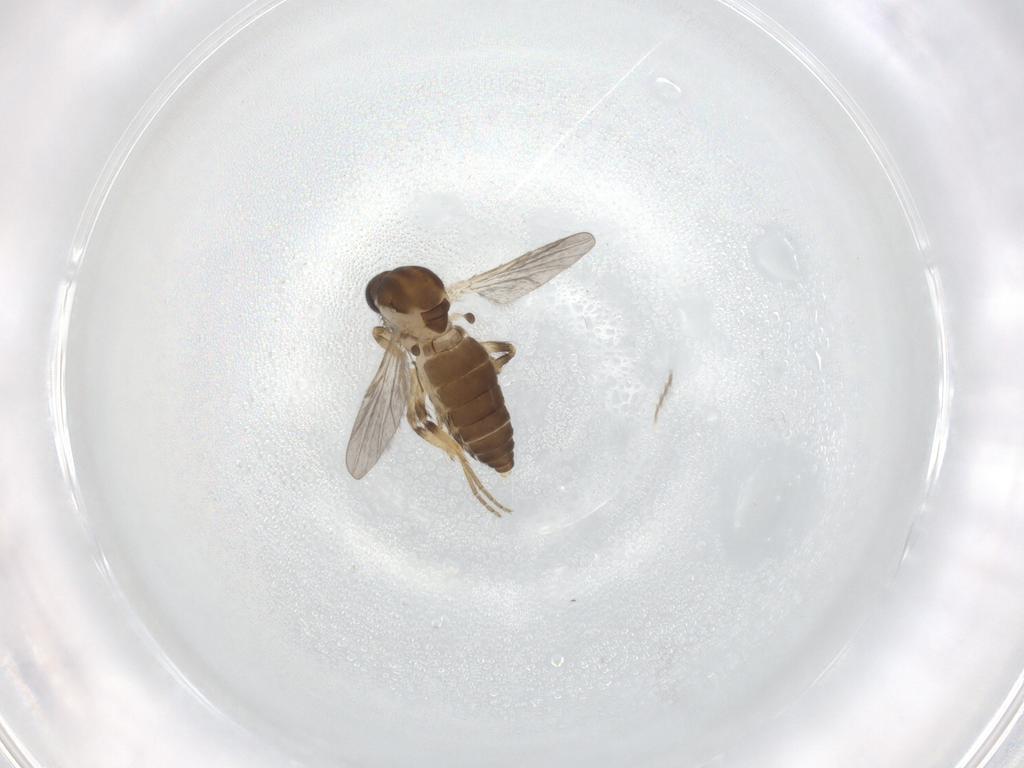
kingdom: Animalia
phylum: Arthropoda
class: Insecta
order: Diptera
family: Ceratopogonidae
